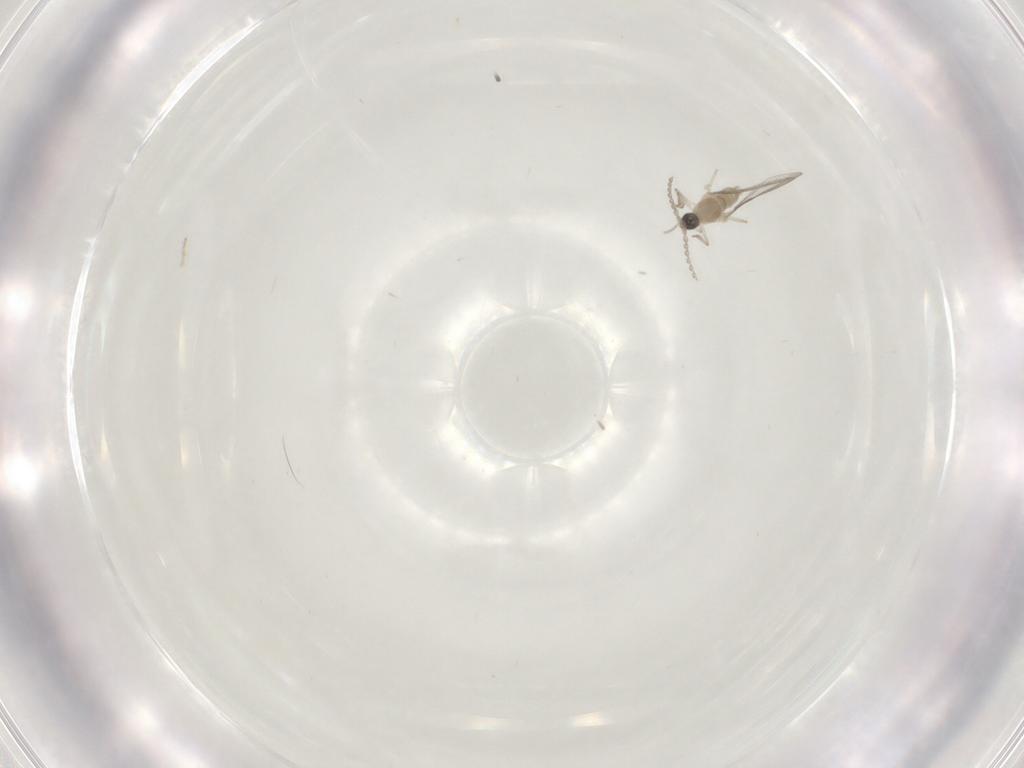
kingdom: Animalia
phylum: Arthropoda
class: Insecta
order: Diptera
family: Cecidomyiidae
